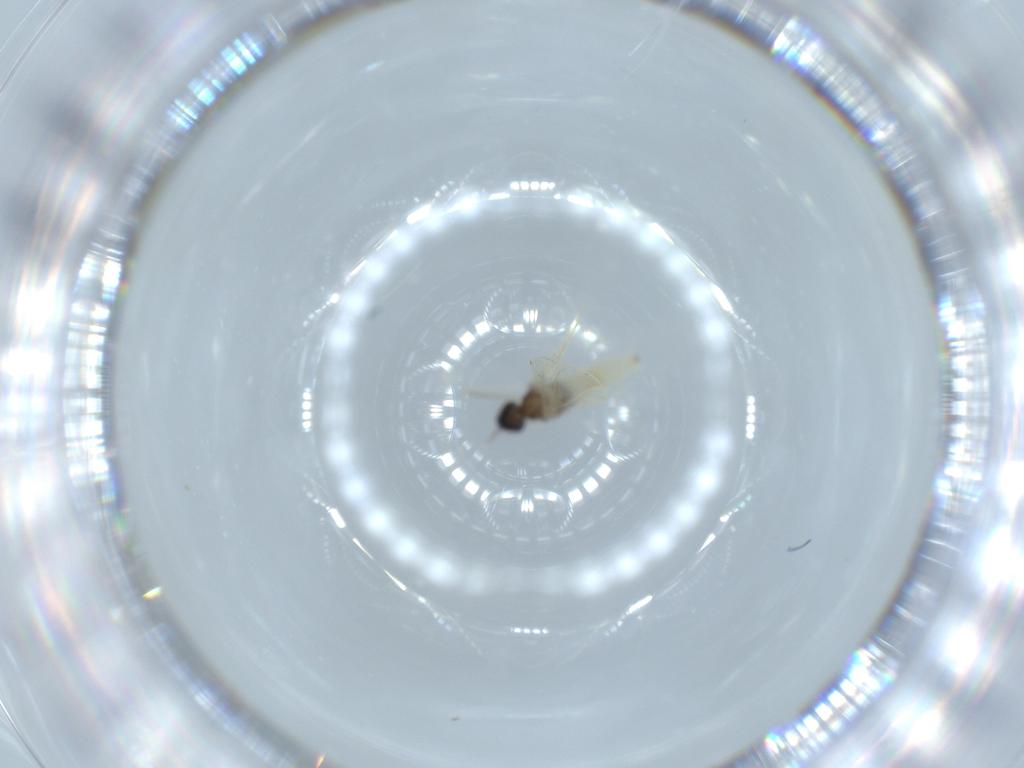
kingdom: Animalia
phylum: Arthropoda
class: Insecta
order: Diptera
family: Cecidomyiidae
